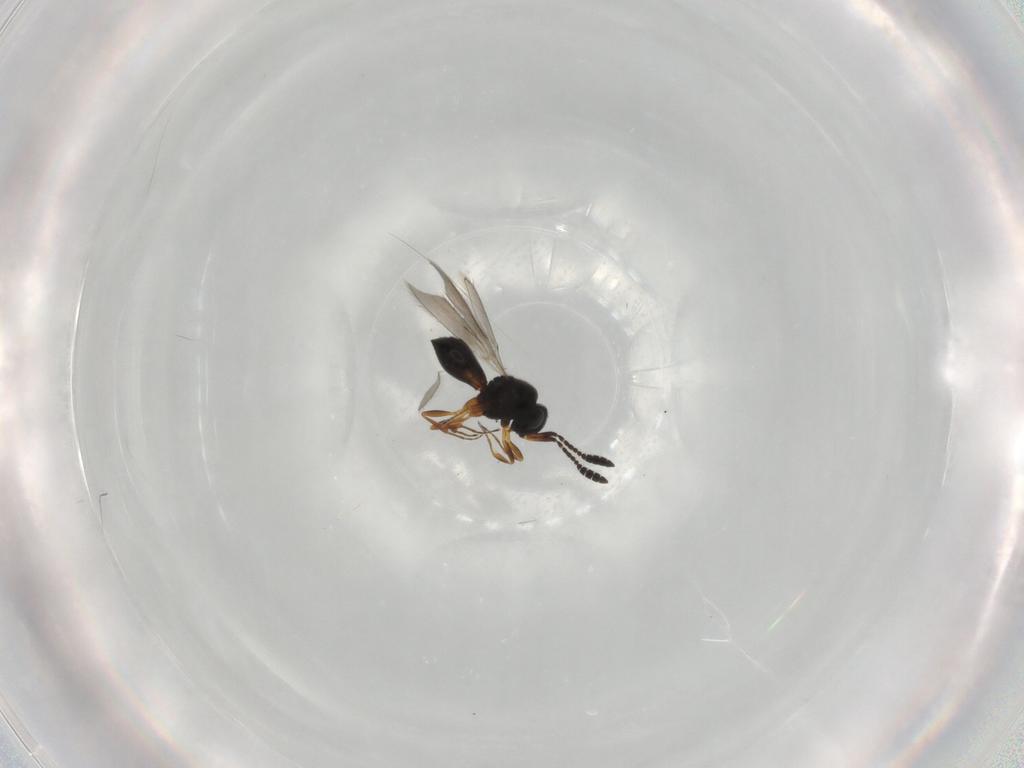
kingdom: Animalia
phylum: Arthropoda
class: Insecta
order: Hymenoptera
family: Scelionidae
